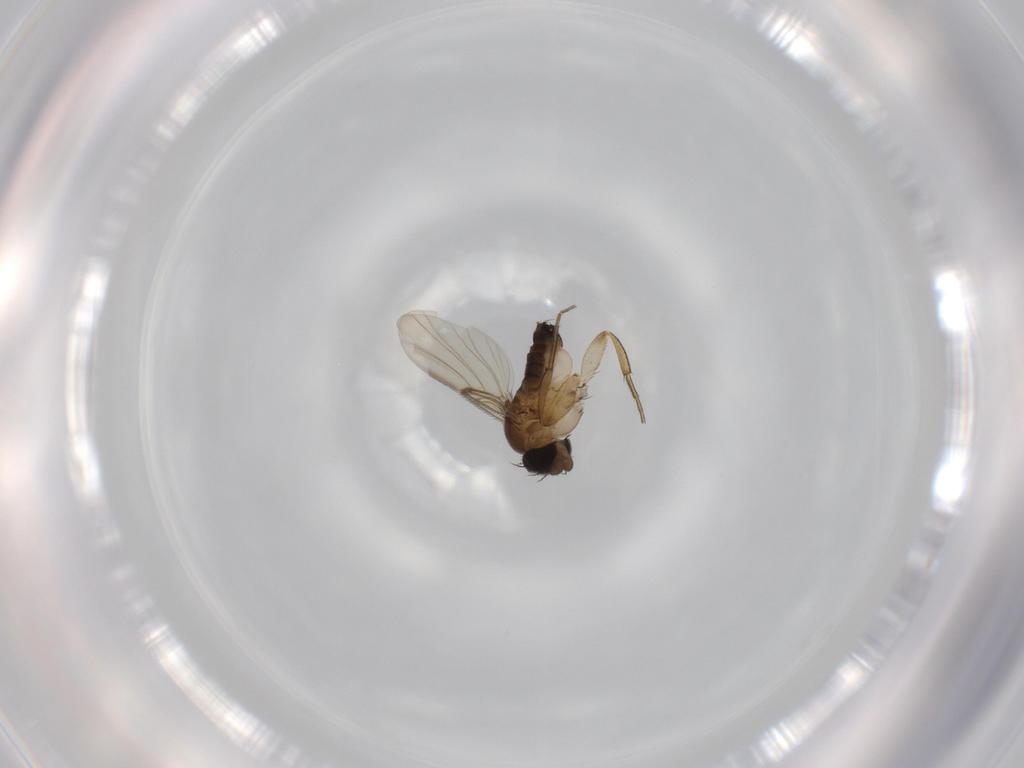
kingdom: Animalia
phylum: Arthropoda
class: Insecta
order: Diptera
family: Phoridae
